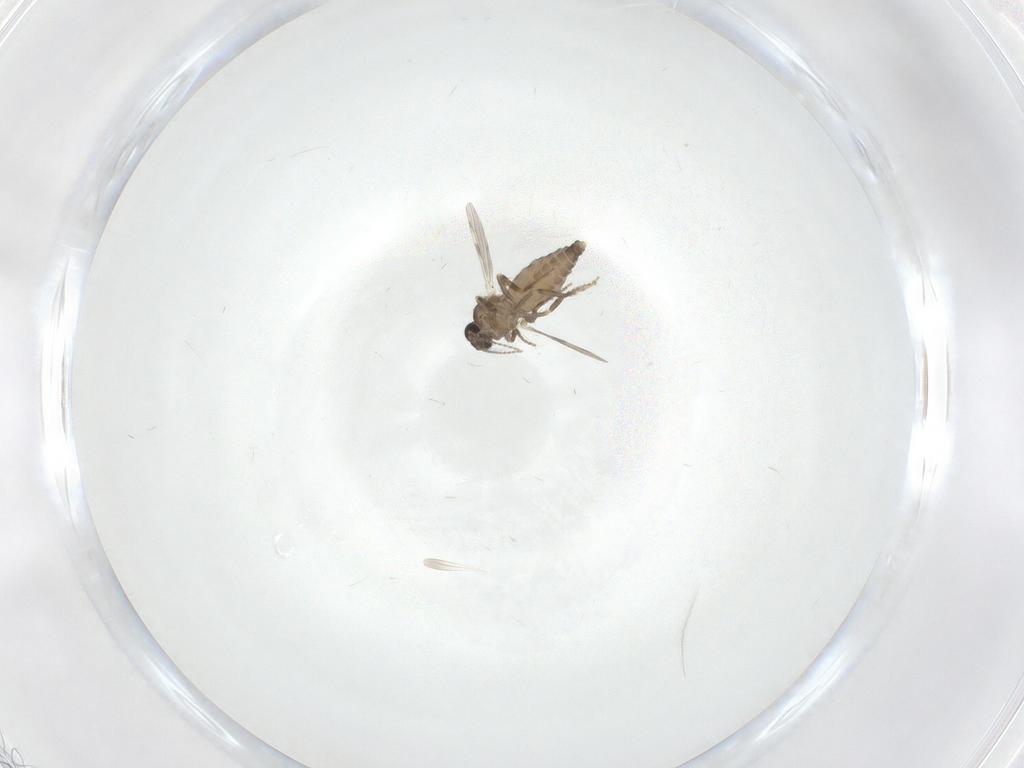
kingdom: Animalia
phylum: Arthropoda
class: Insecta
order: Diptera
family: Ceratopogonidae
